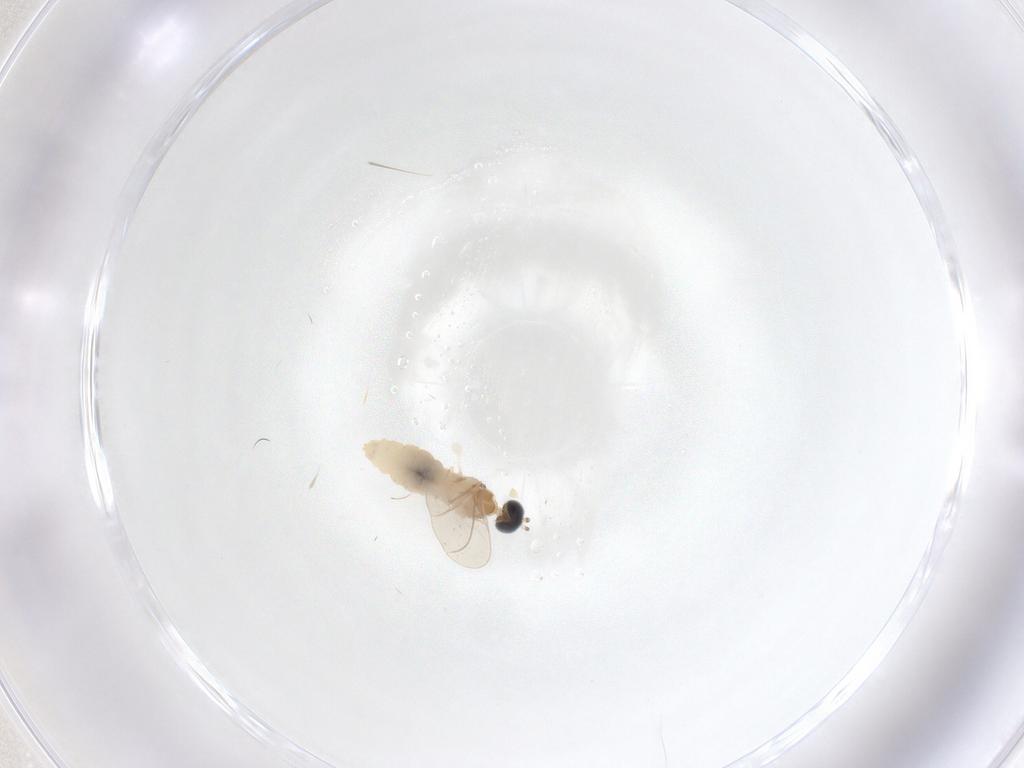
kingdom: Animalia
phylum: Arthropoda
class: Insecta
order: Diptera
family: Cecidomyiidae
